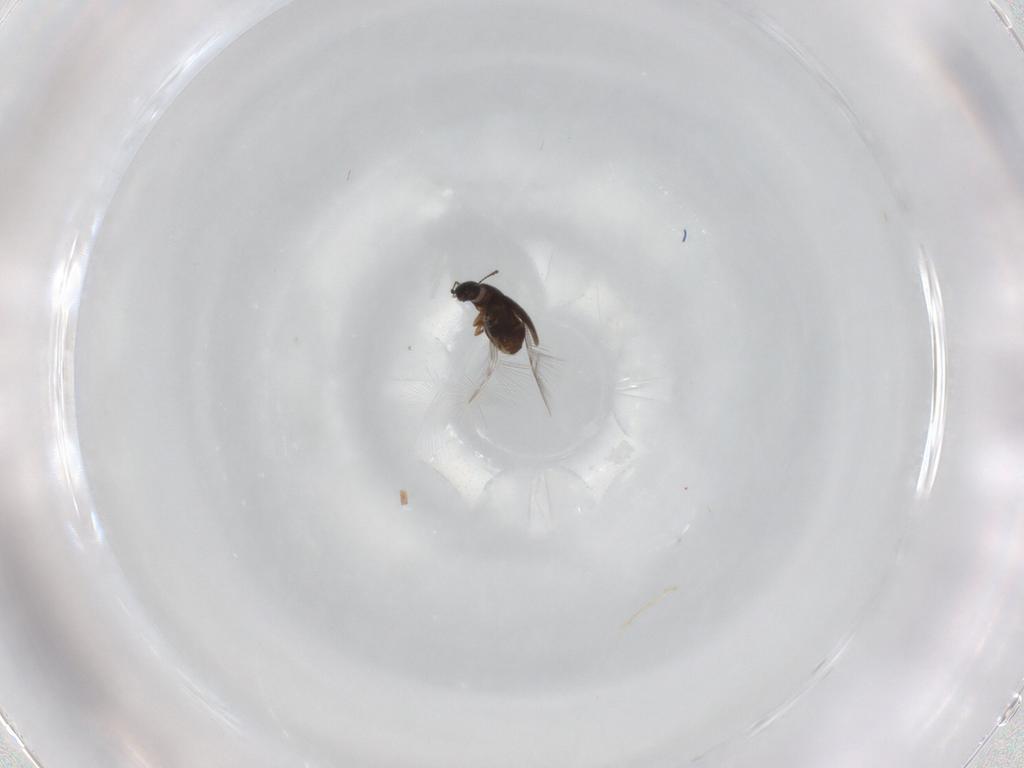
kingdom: Animalia
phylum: Arthropoda
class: Insecta
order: Coleoptera
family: Ptiliidae
